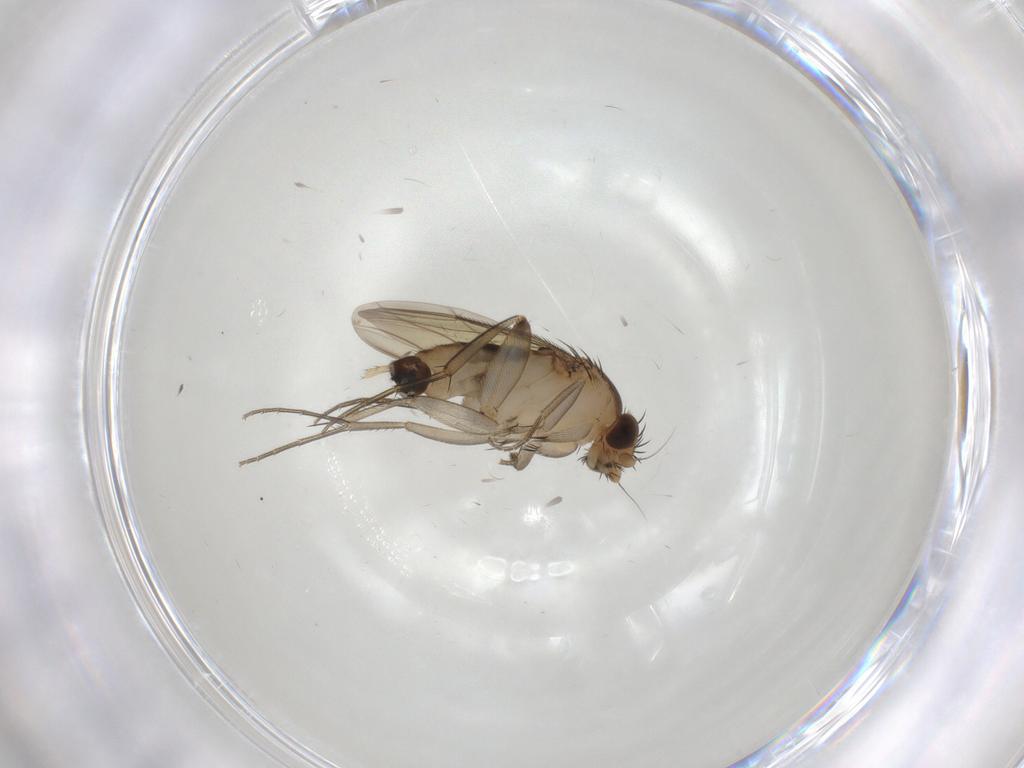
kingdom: Animalia
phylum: Arthropoda
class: Insecta
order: Diptera
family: Phoridae
